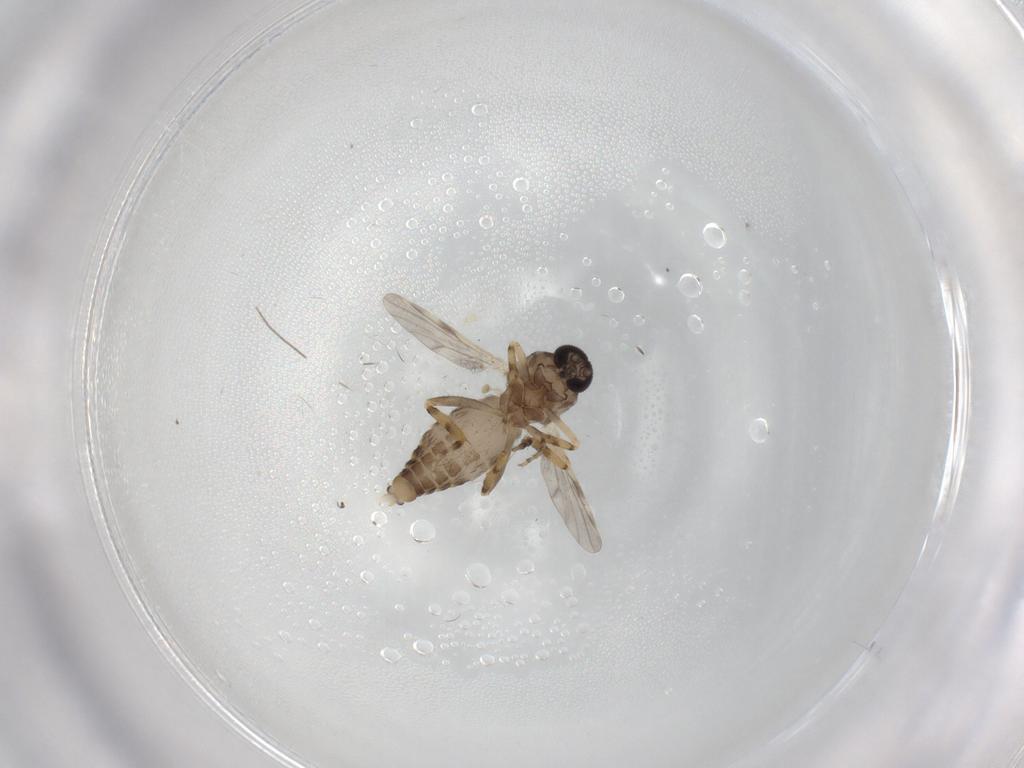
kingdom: Animalia
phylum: Arthropoda
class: Insecta
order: Diptera
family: Ceratopogonidae
